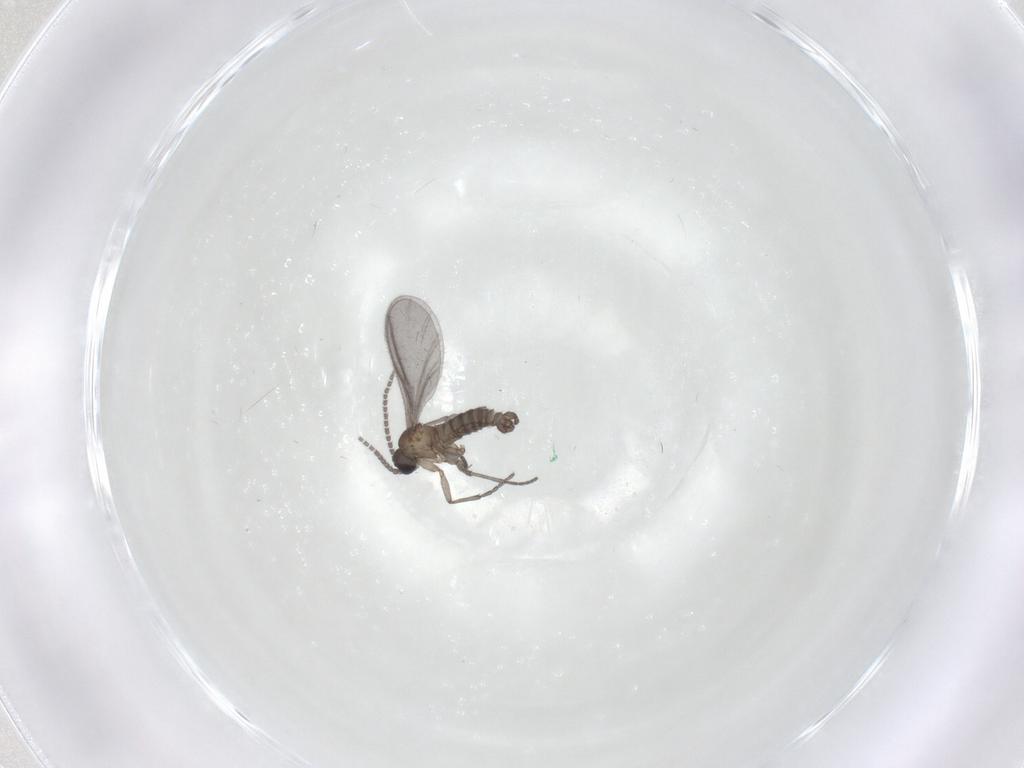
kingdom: Animalia
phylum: Arthropoda
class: Insecta
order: Diptera
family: Sciaridae
